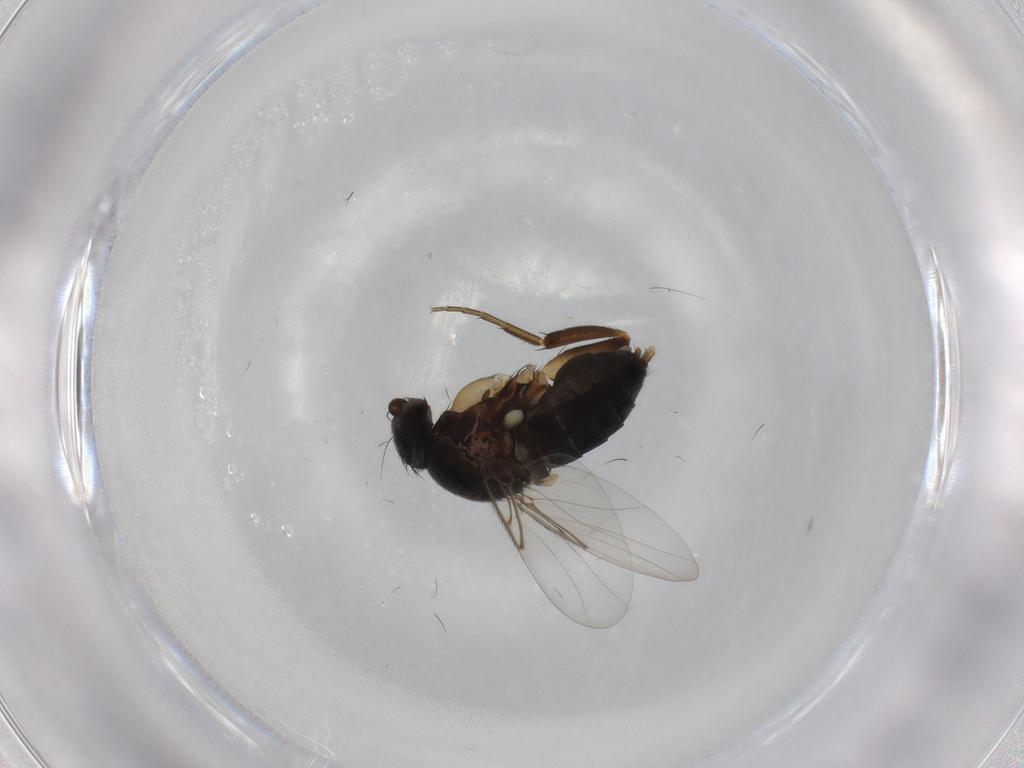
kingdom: Animalia
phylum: Arthropoda
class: Insecta
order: Diptera
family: Phoridae
